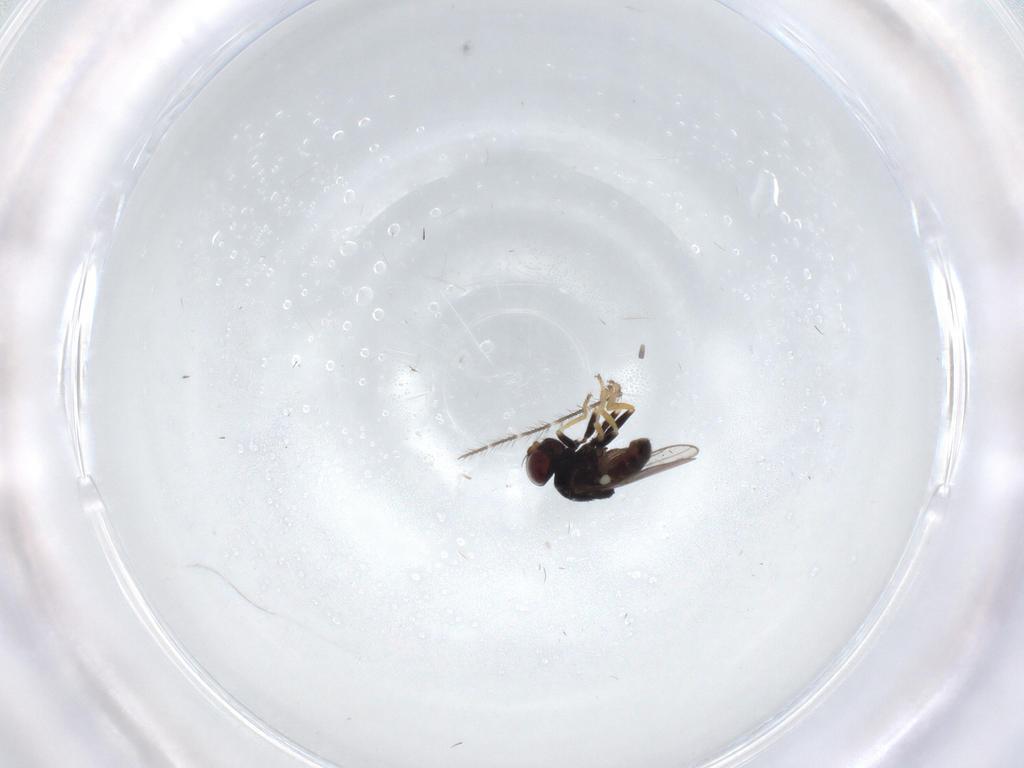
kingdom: Animalia
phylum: Arthropoda
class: Insecta
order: Diptera
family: Chloropidae
